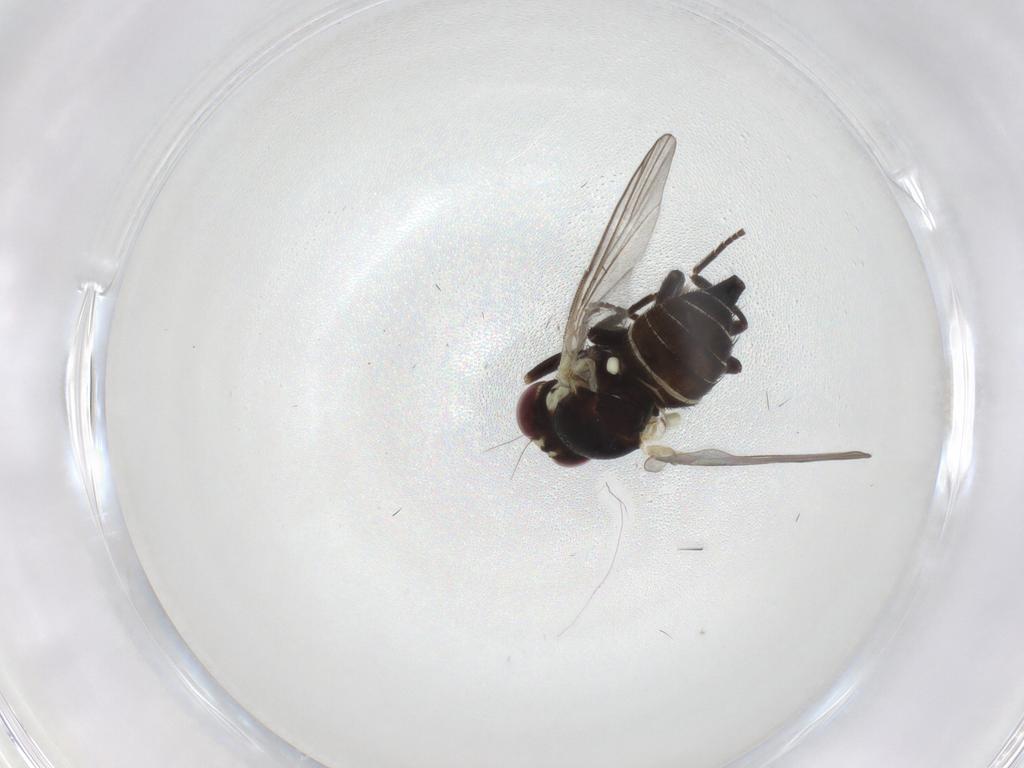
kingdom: Animalia
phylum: Arthropoda
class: Insecta
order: Diptera
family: Agromyzidae
